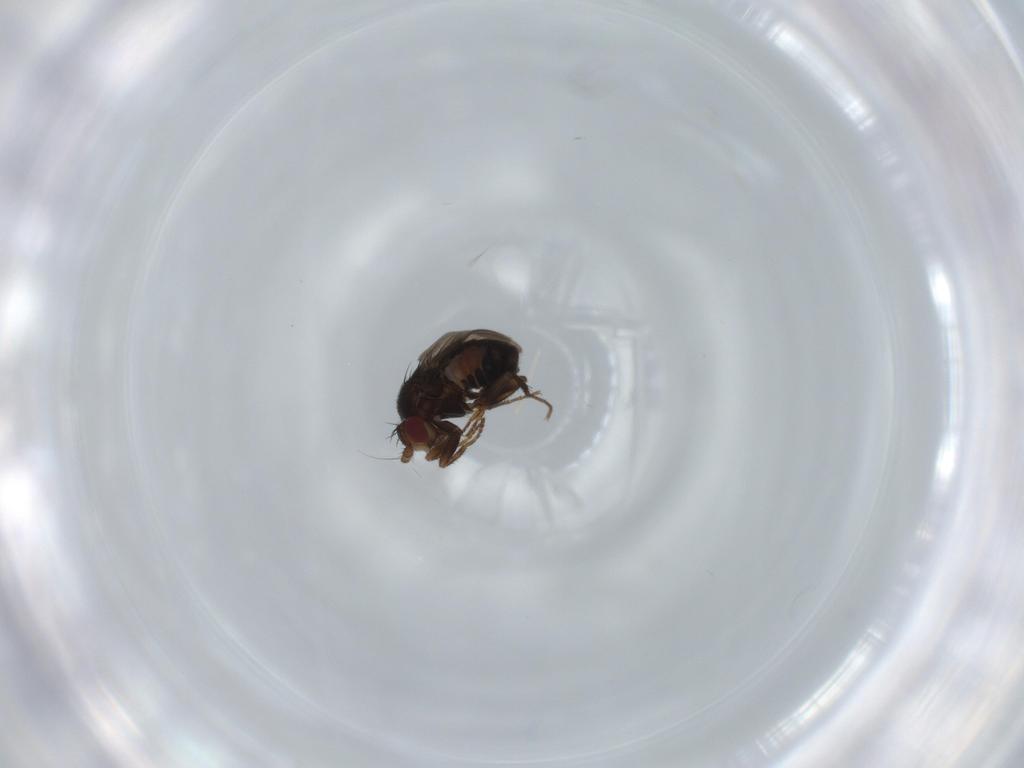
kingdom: Animalia
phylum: Arthropoda
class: Insecta
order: Diptera
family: Sphaeroceridae
